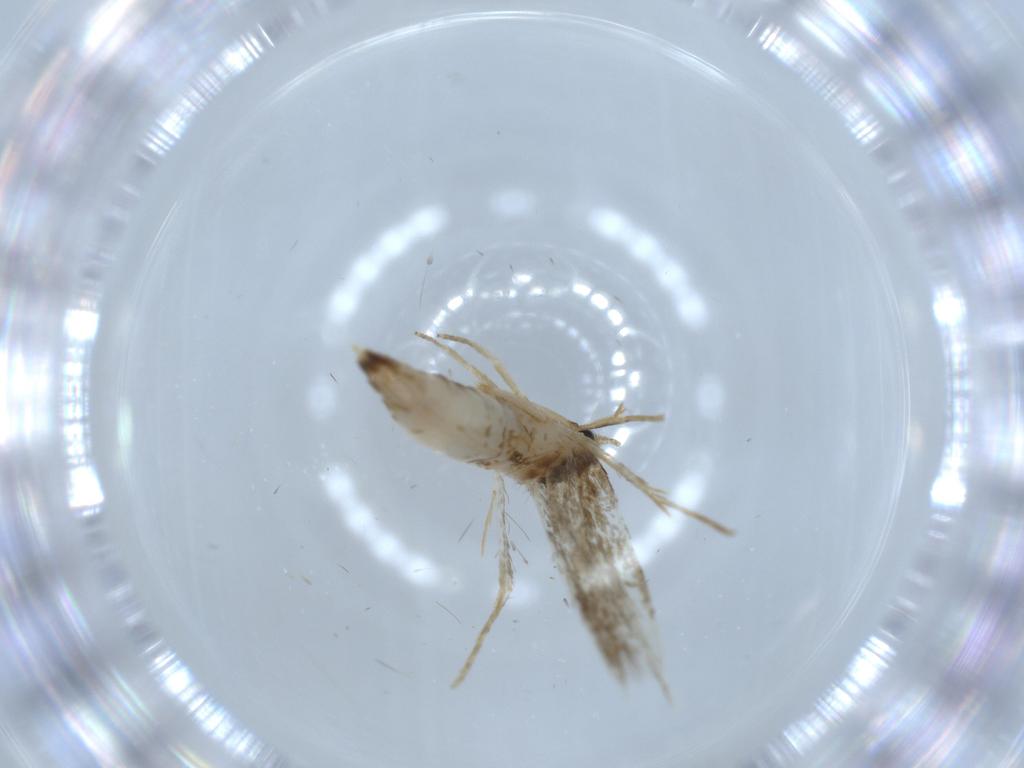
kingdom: Animalia
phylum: Arthropoda
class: Insecta
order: Lepidoptera
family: Tineidae
